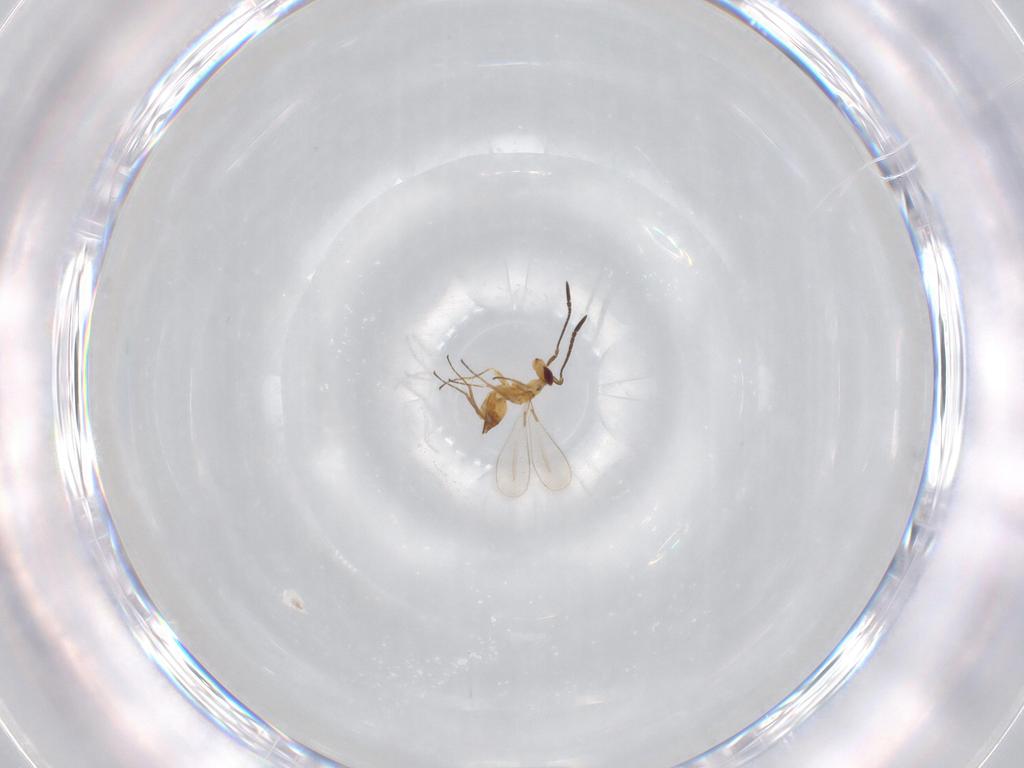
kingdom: Animalia
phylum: Arthropoda
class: Insecta
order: Hymenoptera
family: Mymaridae
